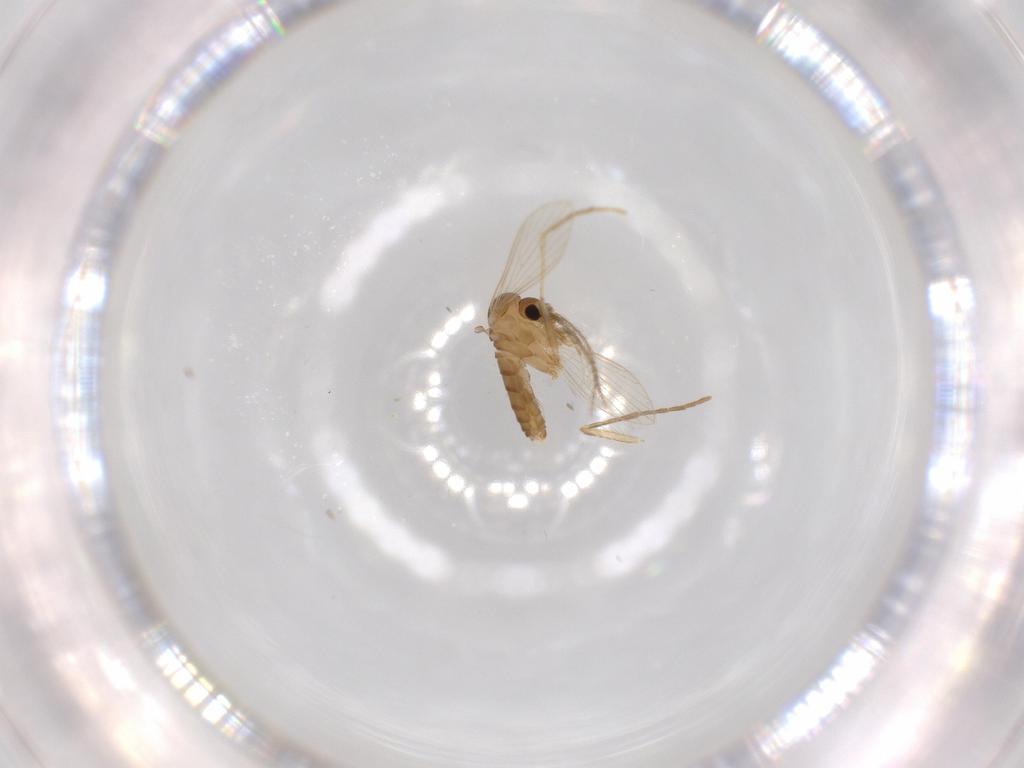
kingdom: Animalia
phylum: Arthropoda
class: Insecta
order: Diptera
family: Psychodidae
